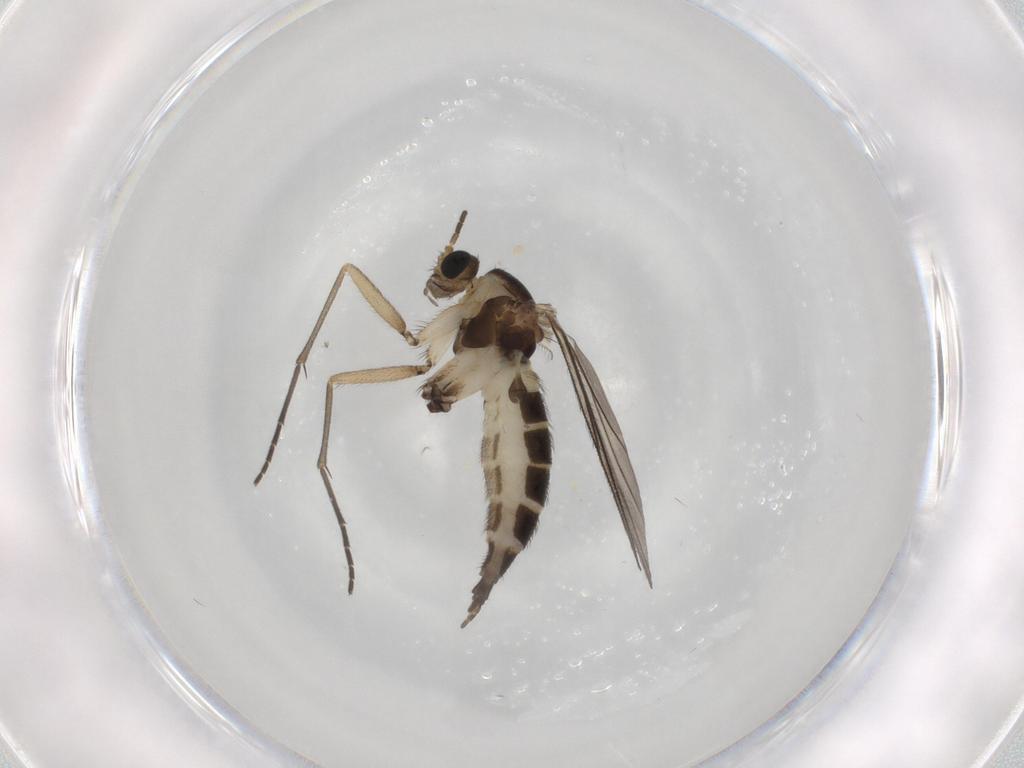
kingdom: Animalia
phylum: Arthropoda
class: Insecta
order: Diptera
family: Sciaridae
